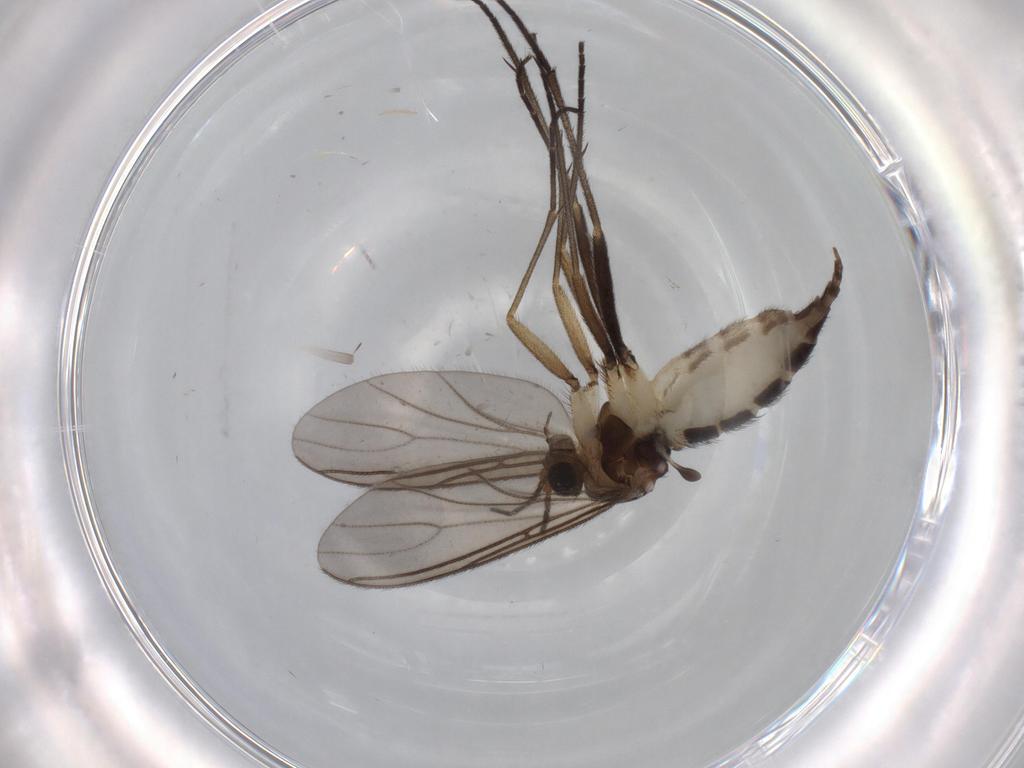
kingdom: Animalia
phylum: Arthropoda
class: Insecta
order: Diptera
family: Sciaridae
